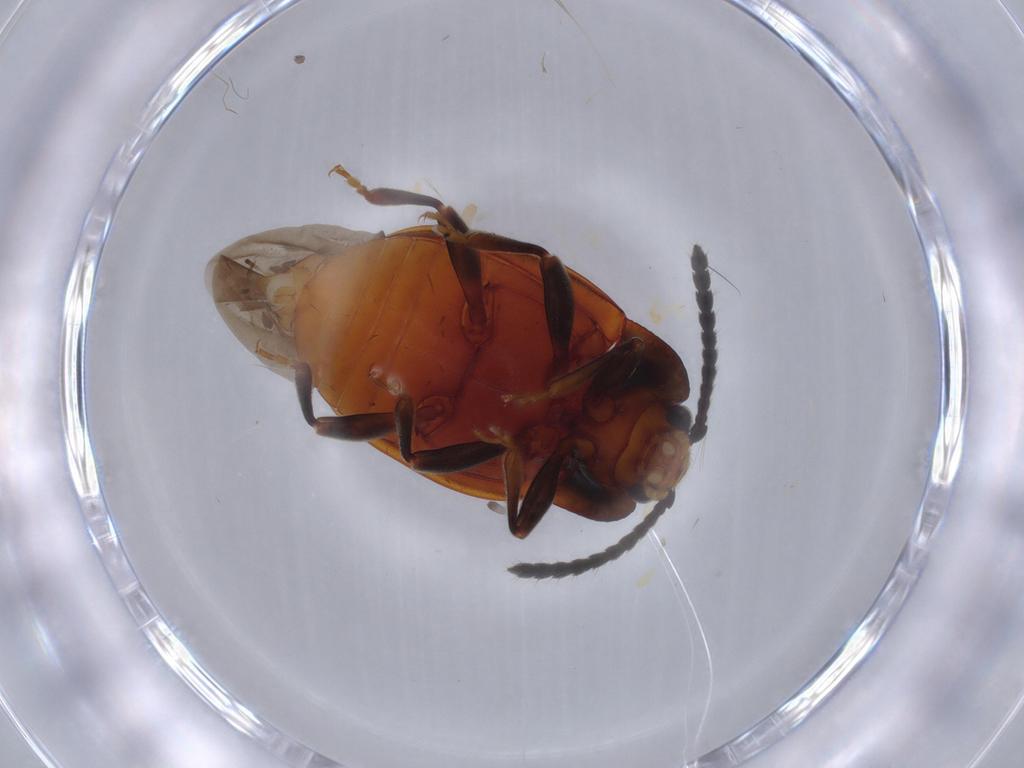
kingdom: Animalia
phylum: Arthropoda
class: Insecta
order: Coleoptera
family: Endomychidae
